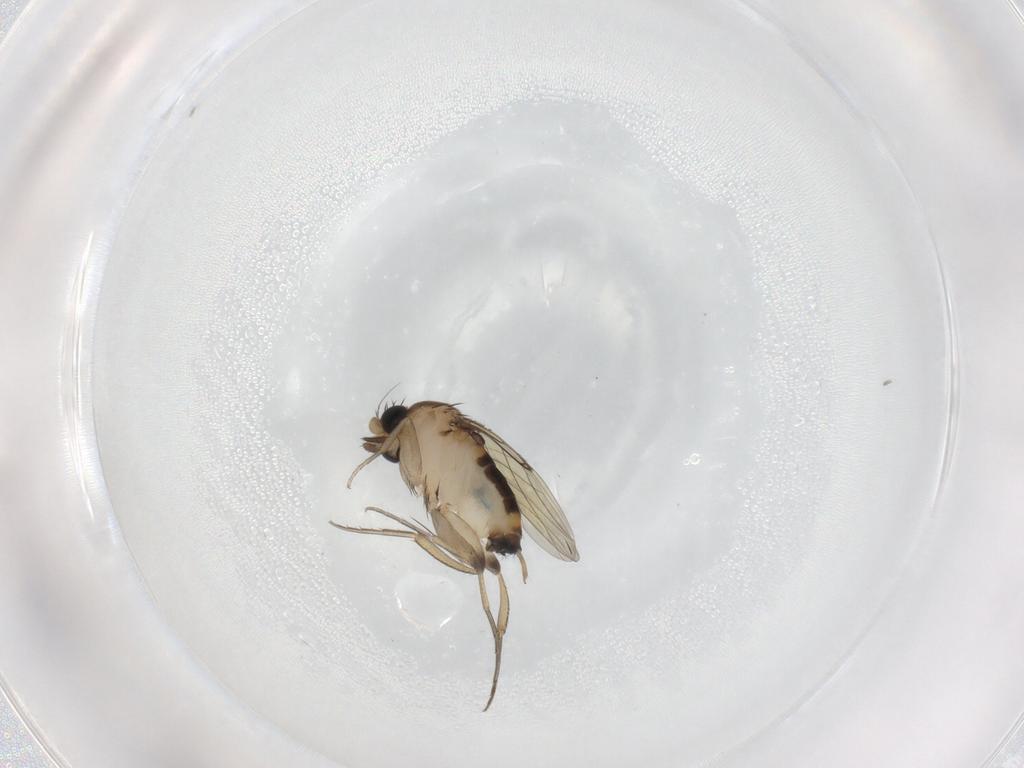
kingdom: Animalia
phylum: Arthropoda
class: Insecta
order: Diptera
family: Phoridae
